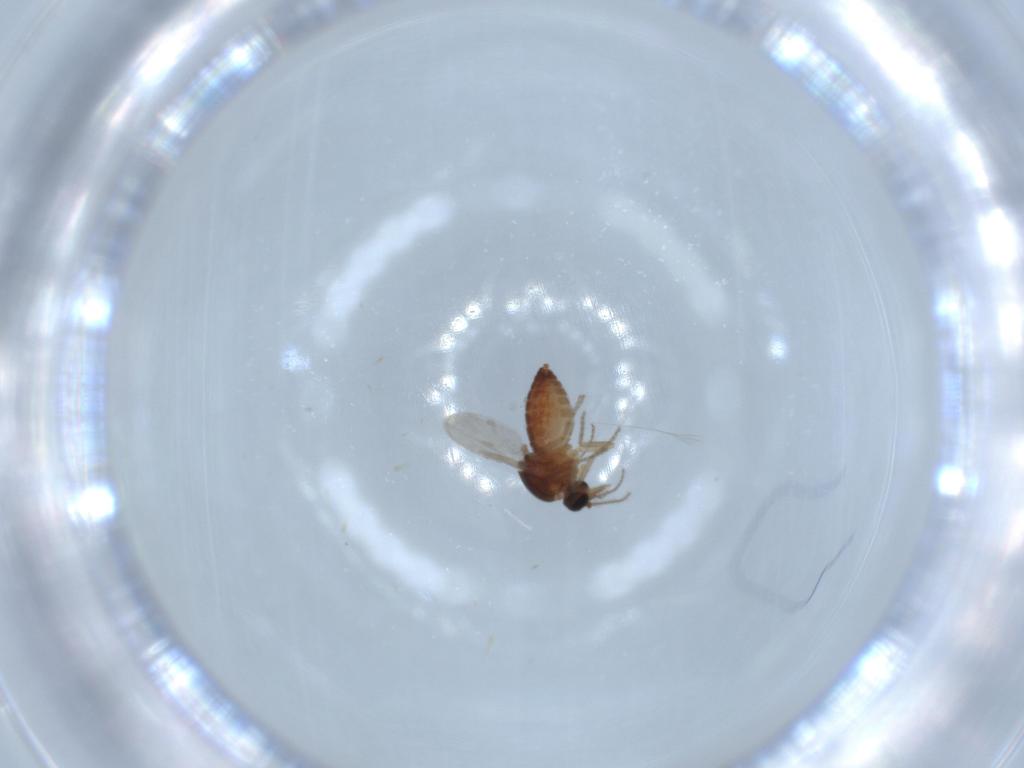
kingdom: Animalia
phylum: Arthropoda
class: Insecta
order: Diptera
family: Ceratopogonidae
